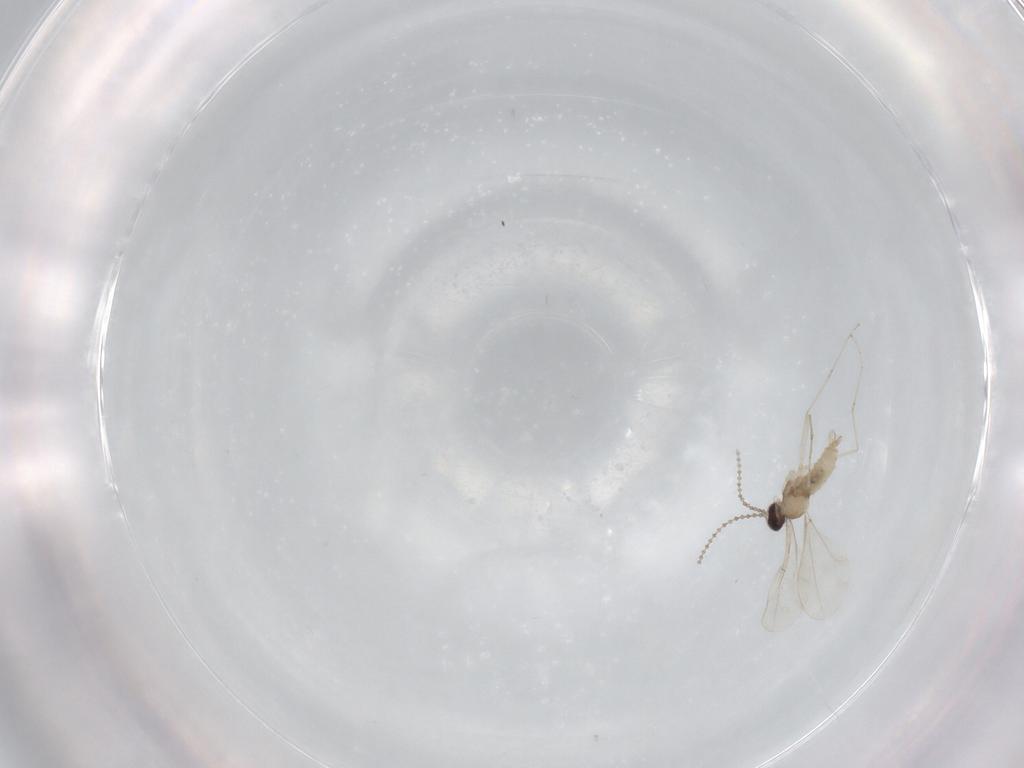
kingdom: Animalia
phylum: Arthropoda
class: Insecta
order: Diptera
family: Cecidomyiidae
